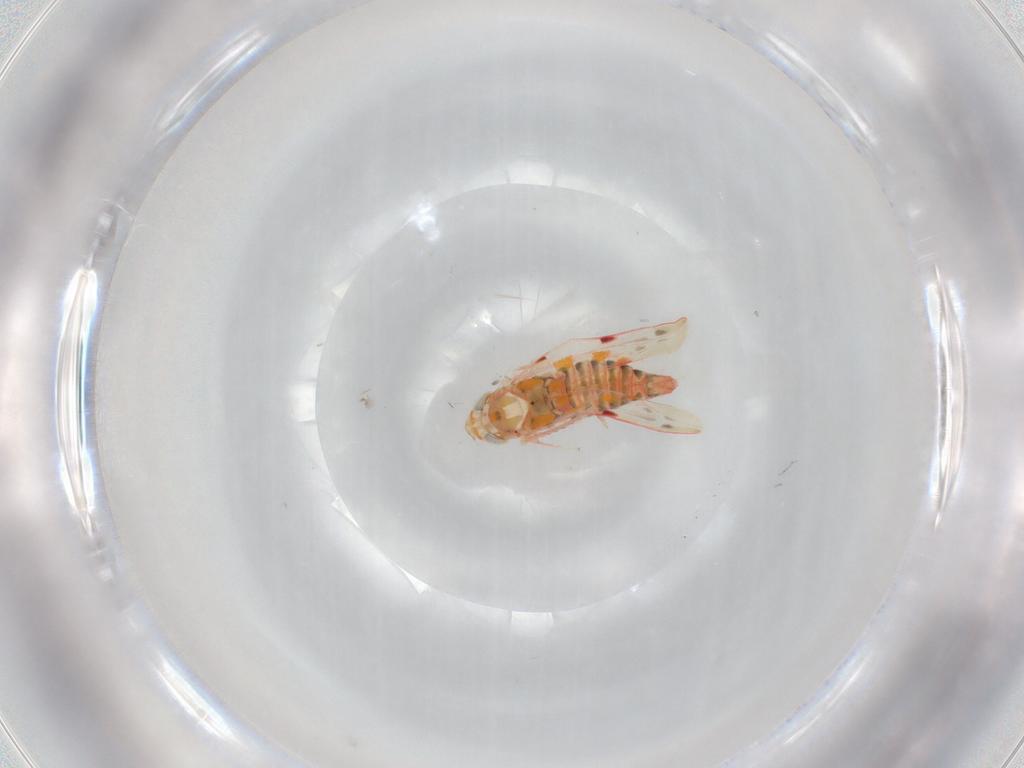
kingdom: Animalia
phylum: Arthropoda
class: Insecta
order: Hemiptera
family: Cicadellidae
